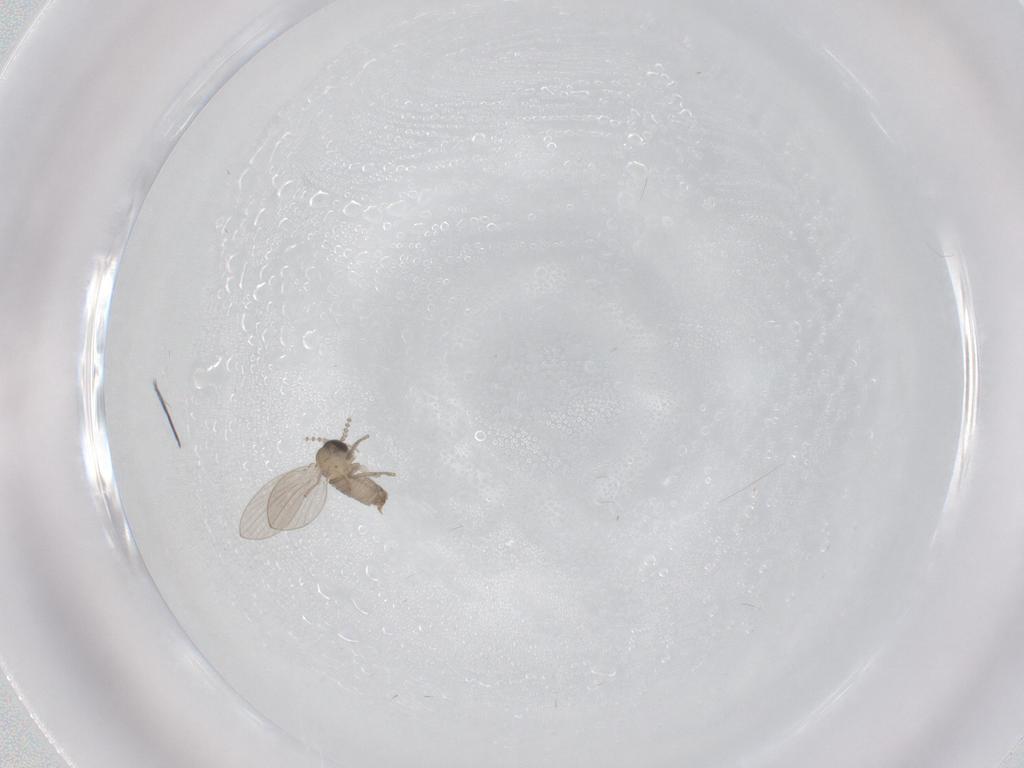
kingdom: Animalia
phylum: Arthropoda
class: Insecta
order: Diptera
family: Psychodidae
